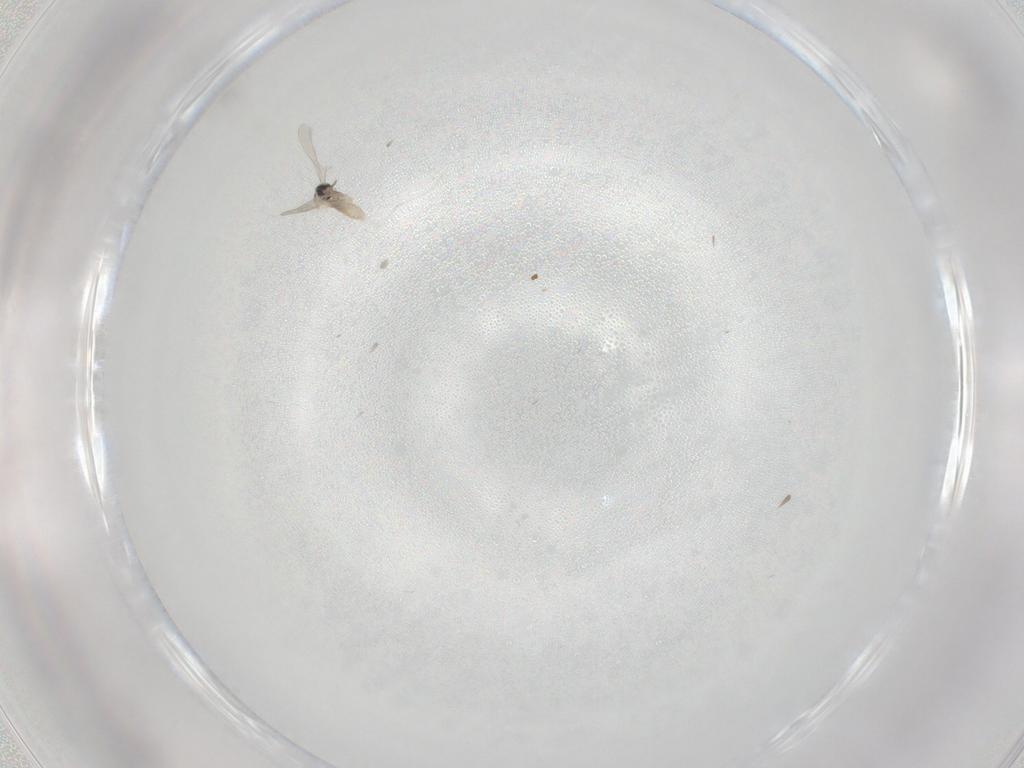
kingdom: Animalia
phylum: Arthropoda
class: Insecta
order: Diptera
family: Cecidomyiidae
